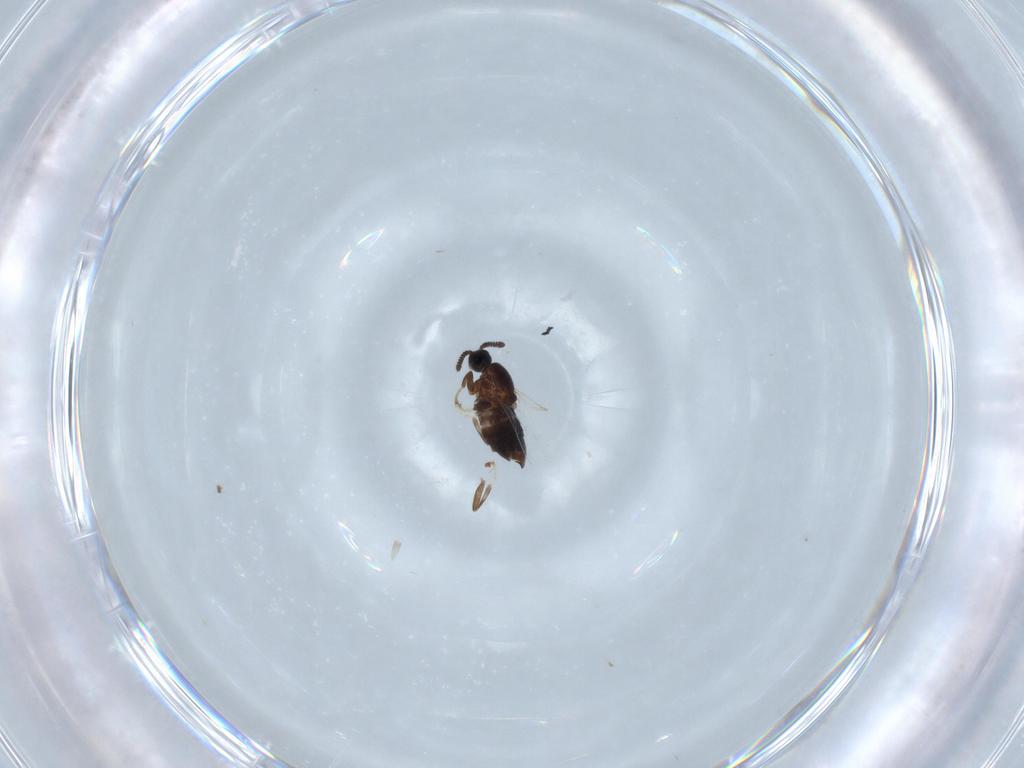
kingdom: Animalia
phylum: Arthropoda
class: Insecta
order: Diptera
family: Scatopsidae
